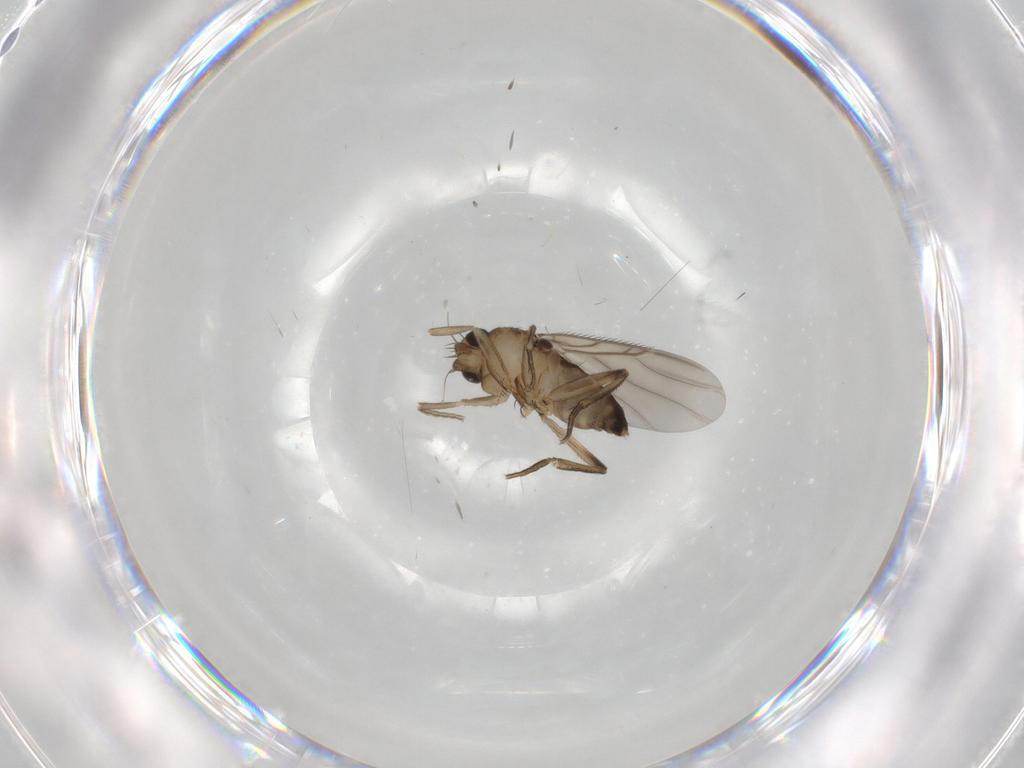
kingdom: Animalia
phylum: Arthropoda
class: Insecta
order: Diptera
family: Phoridae
